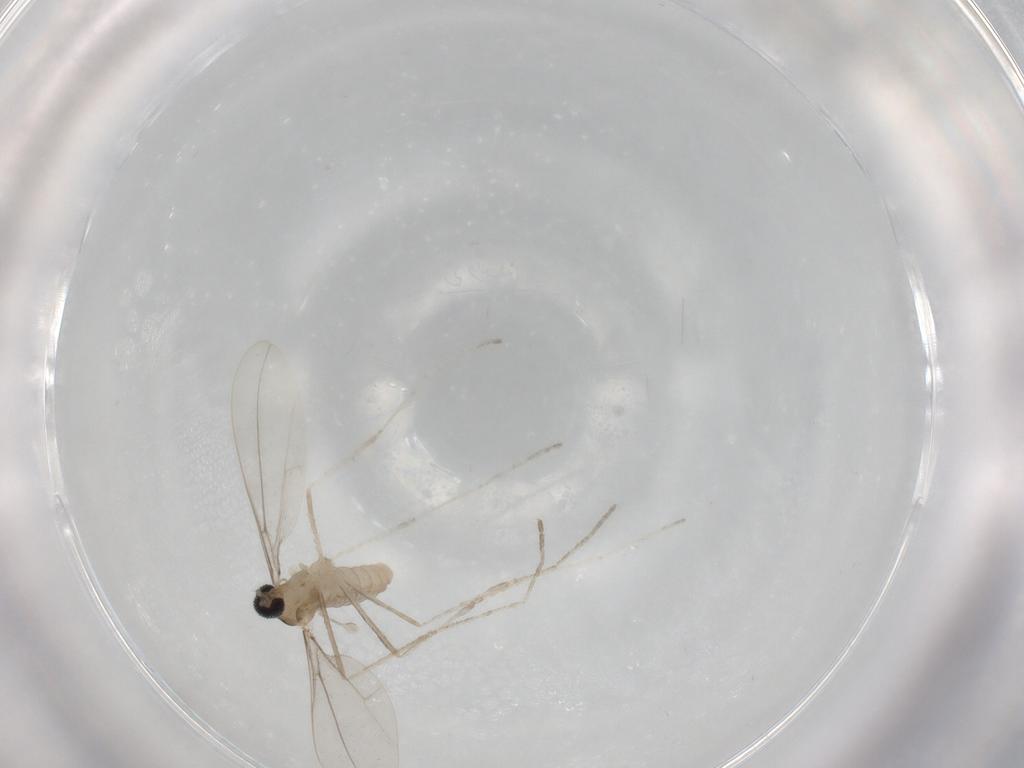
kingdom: Animalia
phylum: Arthropoda
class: Insecta
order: Diptera
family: Cecidomyiidae
